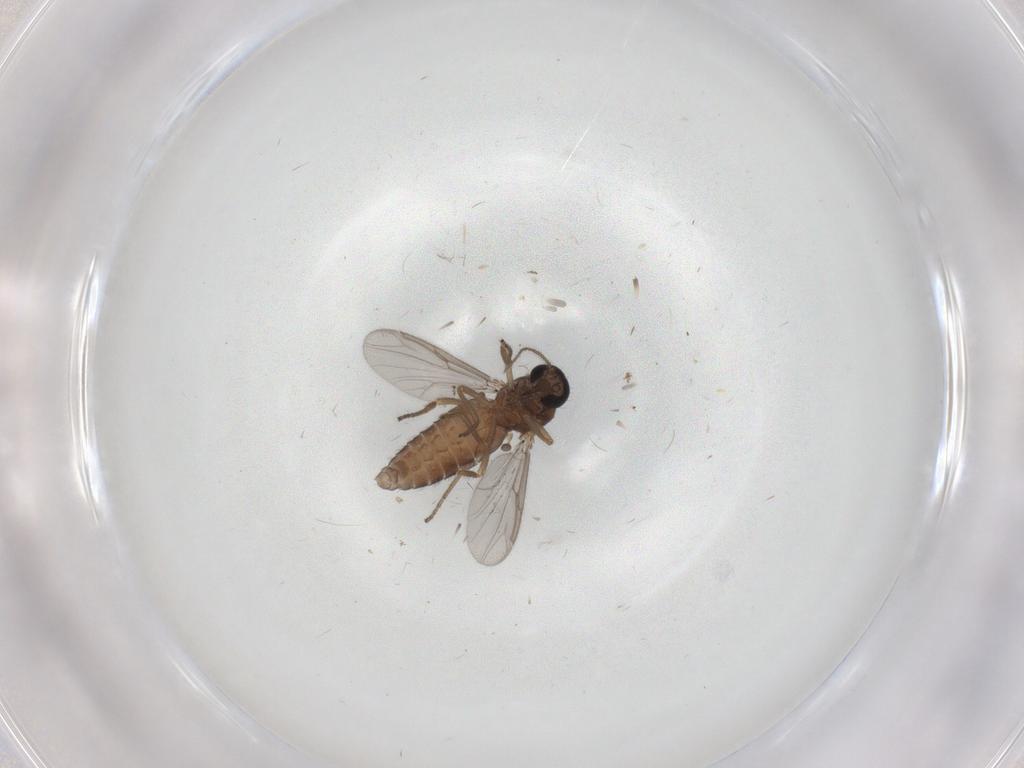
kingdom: Animalia
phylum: Arthropoda
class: Insecta
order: Diptera
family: Ceratopogonidae
